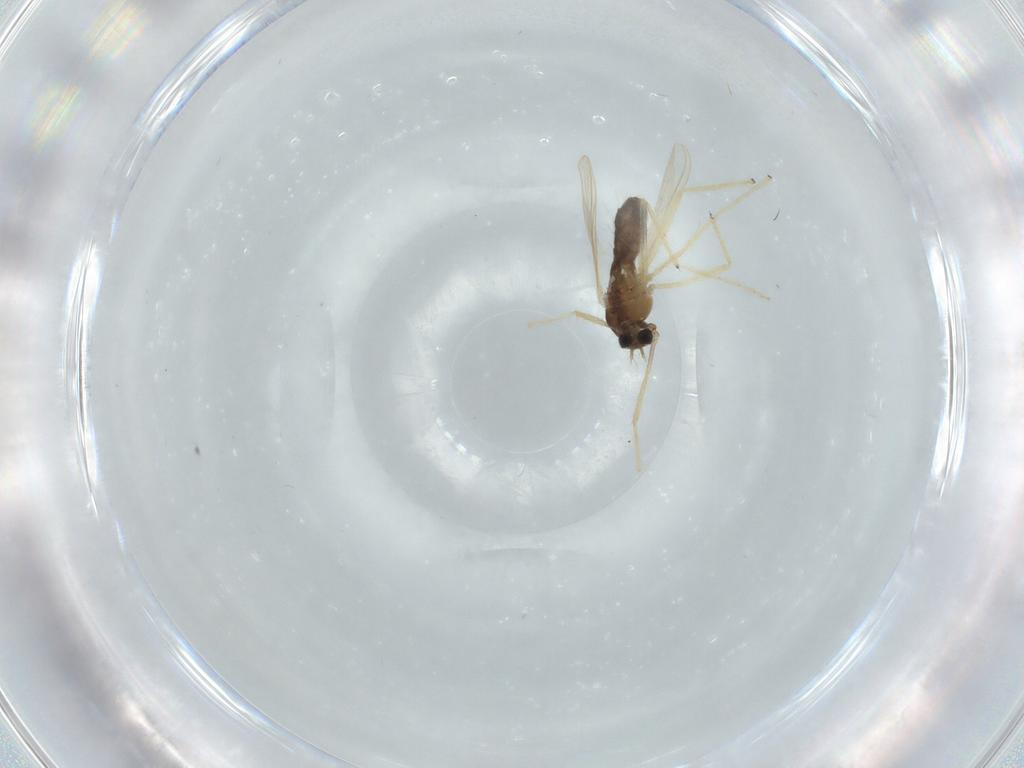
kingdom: Animalia
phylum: Arthropoda
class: Insecta
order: Diptera
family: Chironomidae
